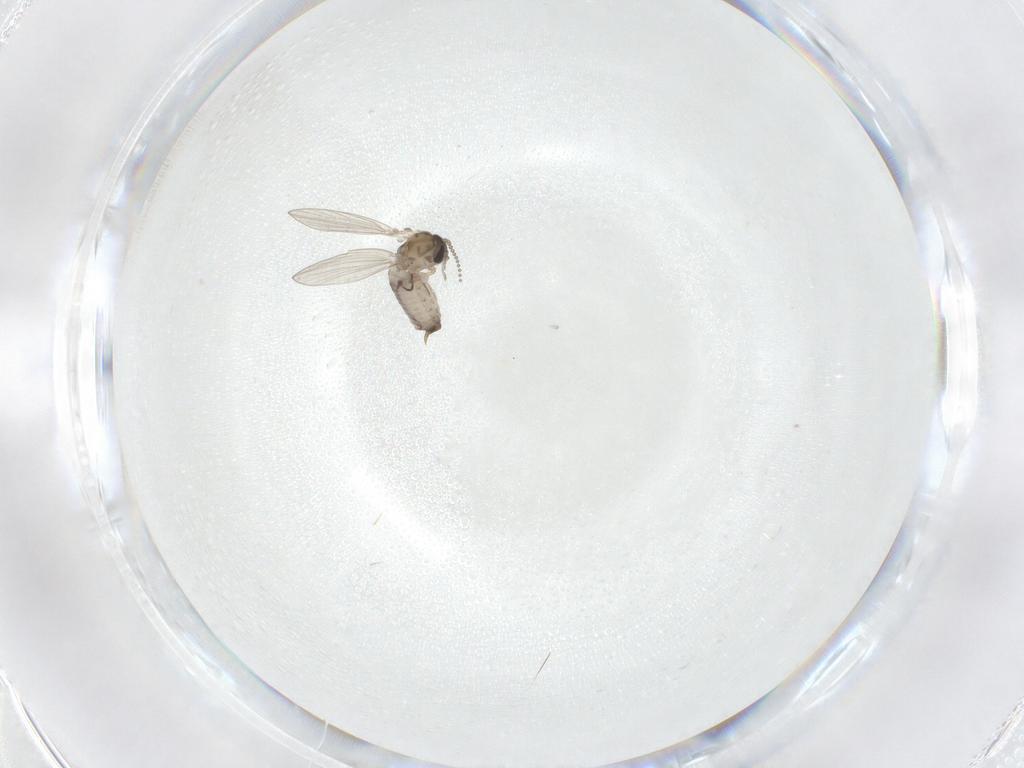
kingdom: Animalia
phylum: Arthropoda
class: Insecta
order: Diptera
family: Psychodidae
